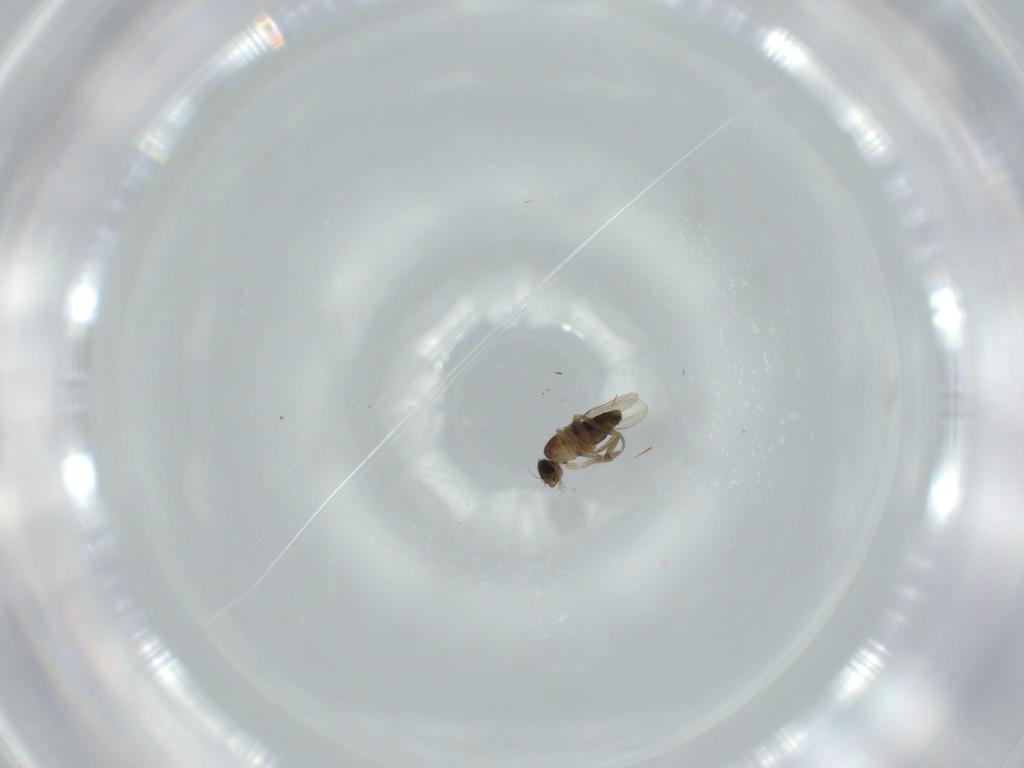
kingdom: Animalia
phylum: Arthropoda
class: Insecta
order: Diptera
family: Phoridae
